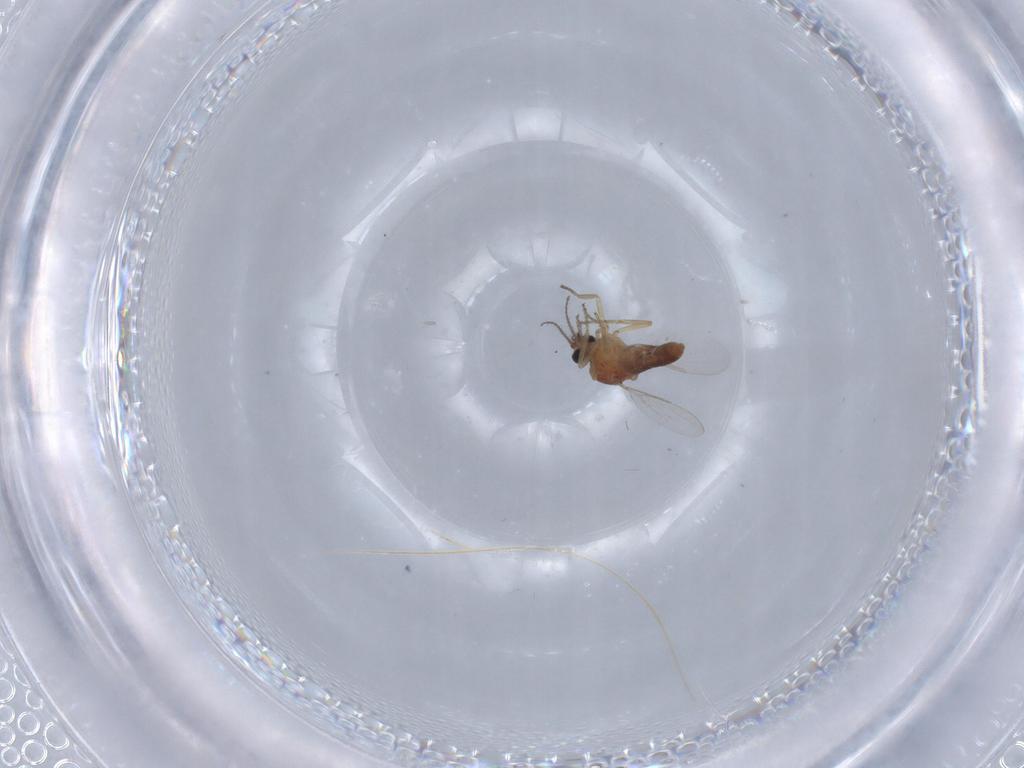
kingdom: Animalia
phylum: Arthropoda
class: Insecta
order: Diptera
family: Ceratopogonidae
